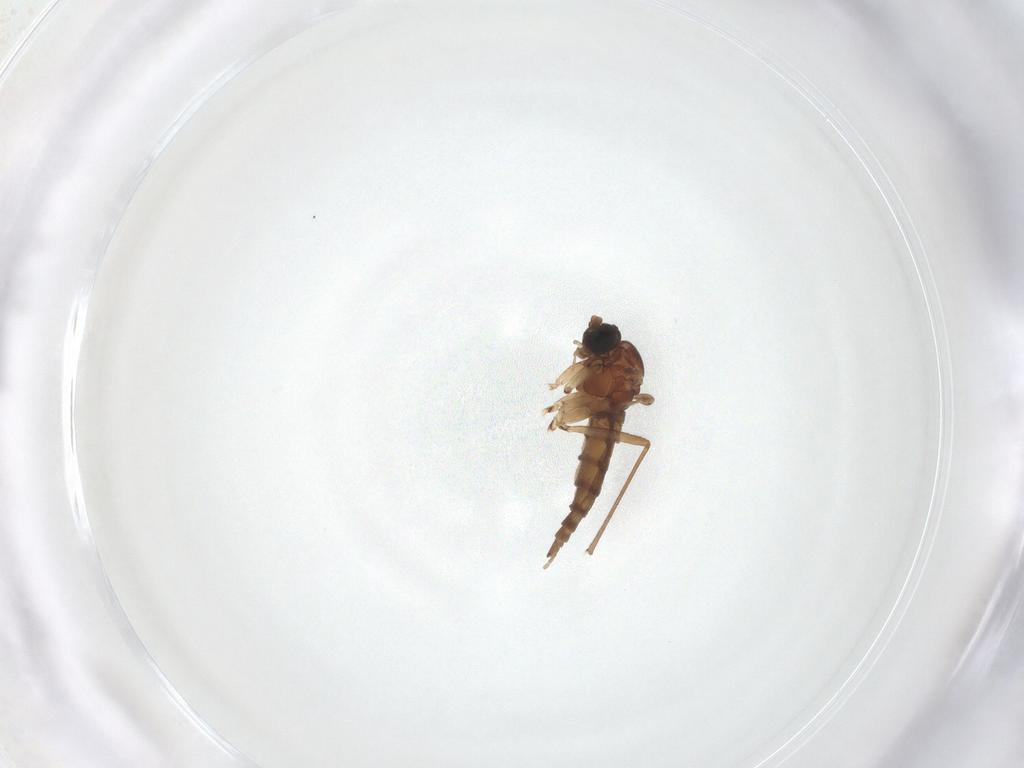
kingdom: Animalia
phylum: Arthropoda
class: Insecta
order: Diptera
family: Sciaridae
